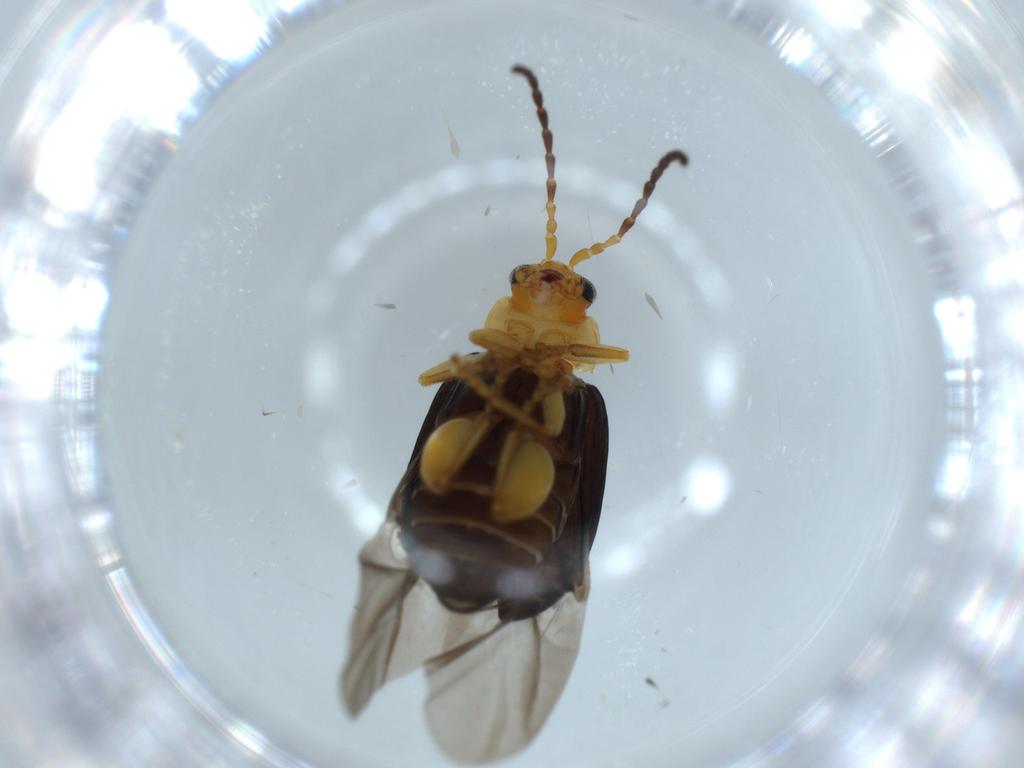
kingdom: Animalia
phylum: Arthropoda
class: Insecta
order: Coleoptera
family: Chrysomelidae
